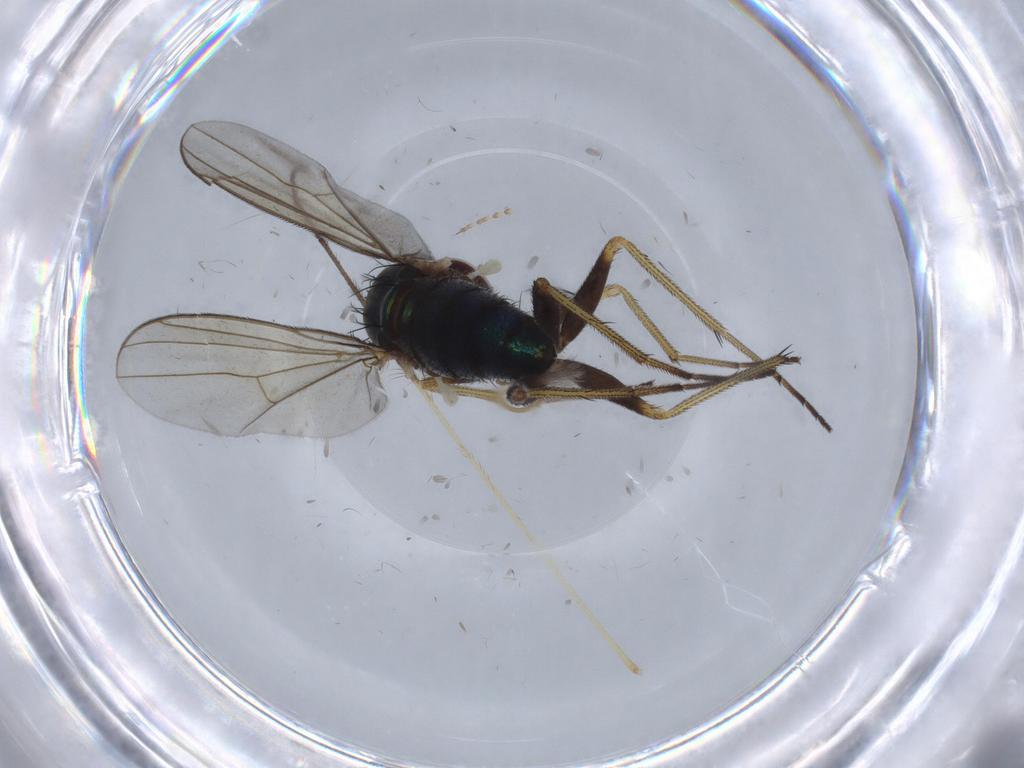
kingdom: Animalia
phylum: Arthropoda
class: Insecta
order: Diptera
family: Dolichopodidae
